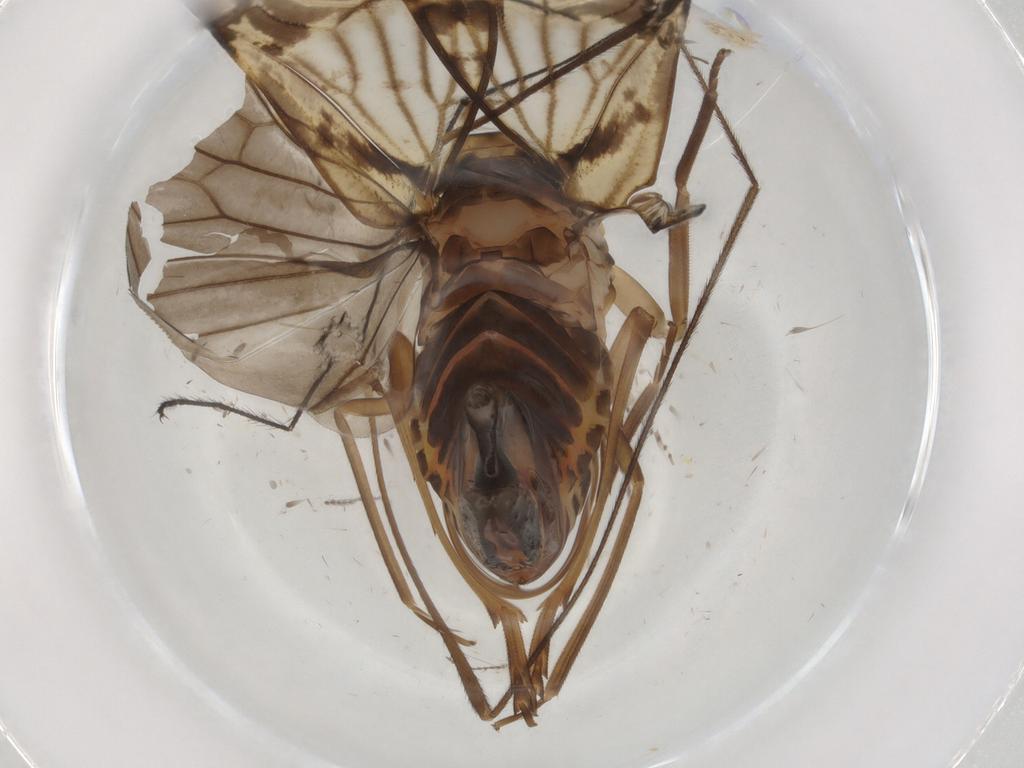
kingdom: Animalia
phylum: Arthropoda
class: Insecta
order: Hemiptera
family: Cixiidae
